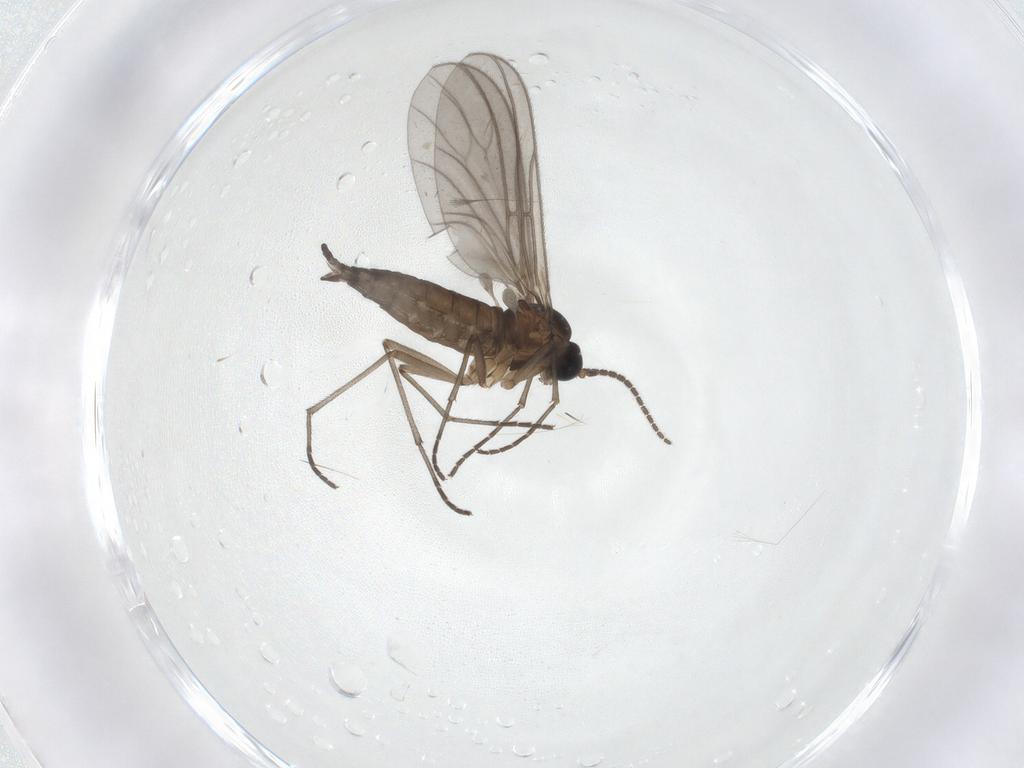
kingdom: Animalia
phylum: Arthropoda
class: Insecta
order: Diptera
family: Sciaridae
